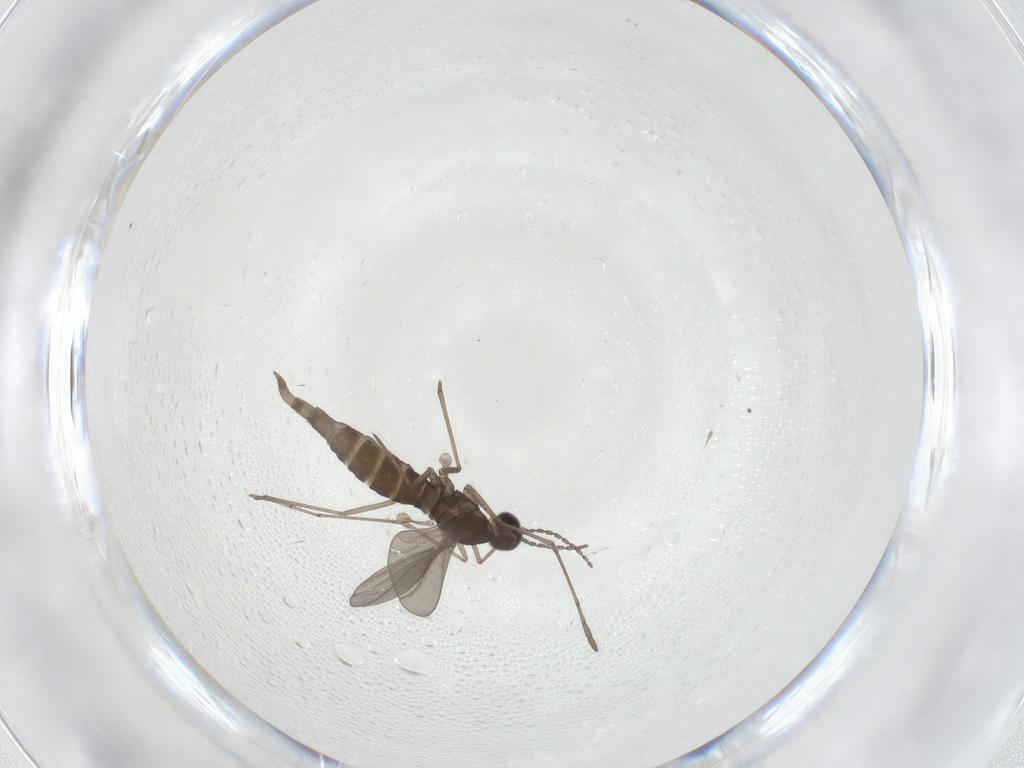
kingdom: Animalia
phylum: Arthropoda
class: Insecta
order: Diptera
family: Cecidomyiidae
